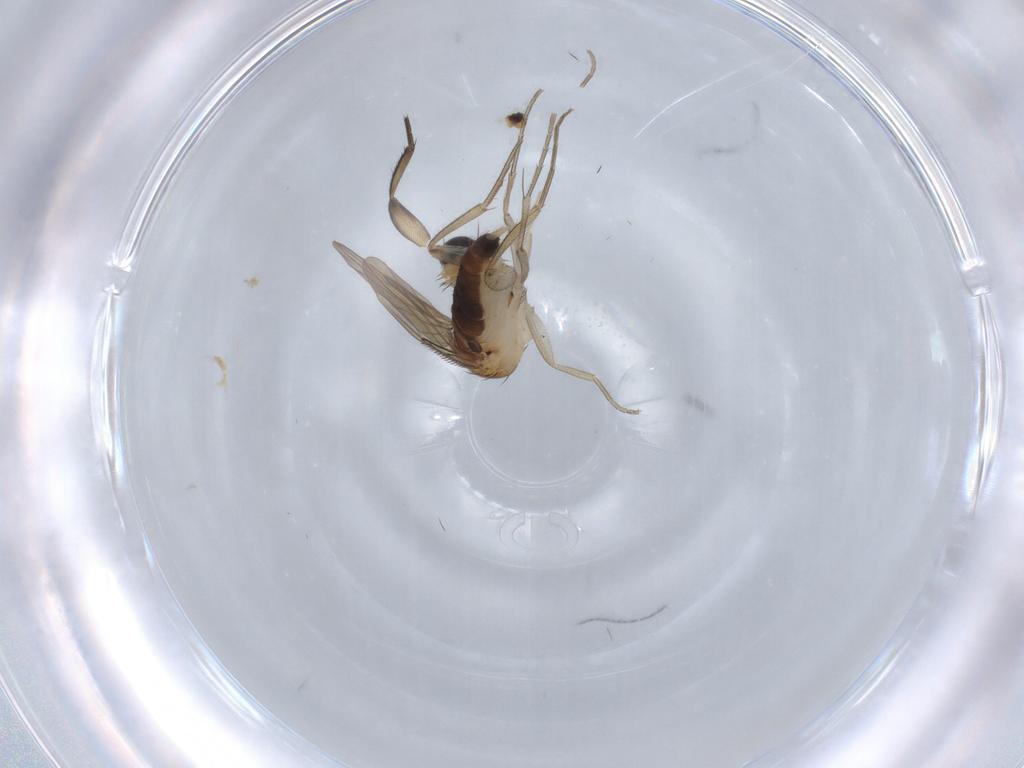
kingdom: Animalia
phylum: Arthropoda
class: Insecta
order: Diptera
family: Phoridae
